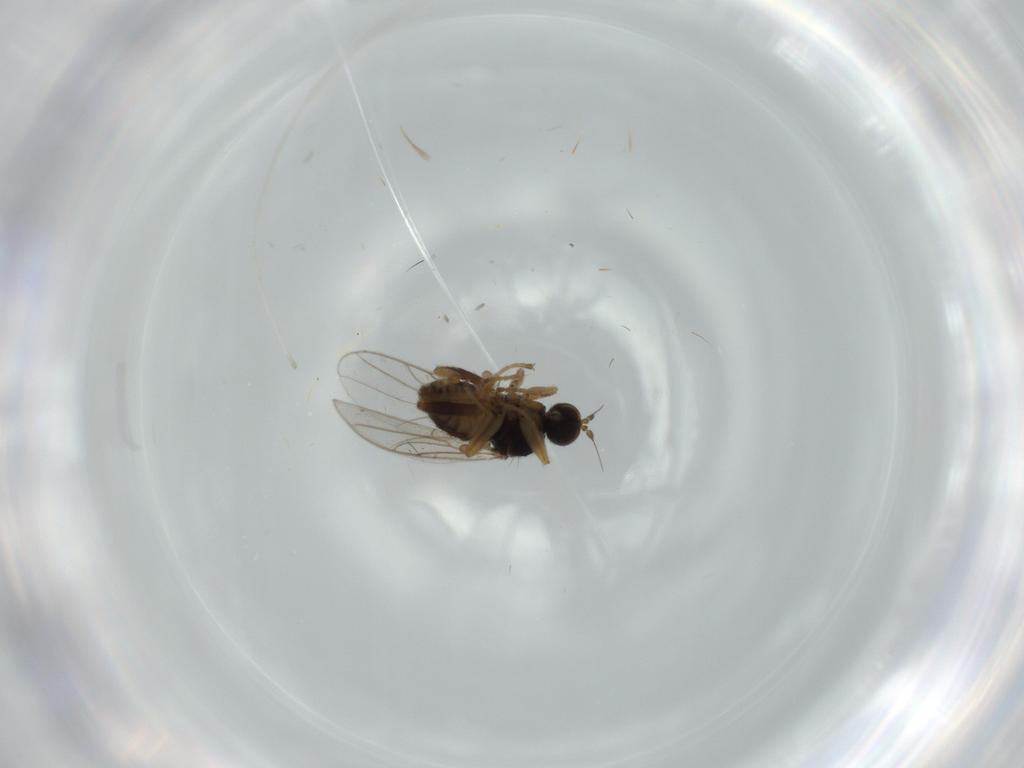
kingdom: Animalia
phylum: Arthropoda
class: Insecta
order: Diptera
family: Hybotidae
